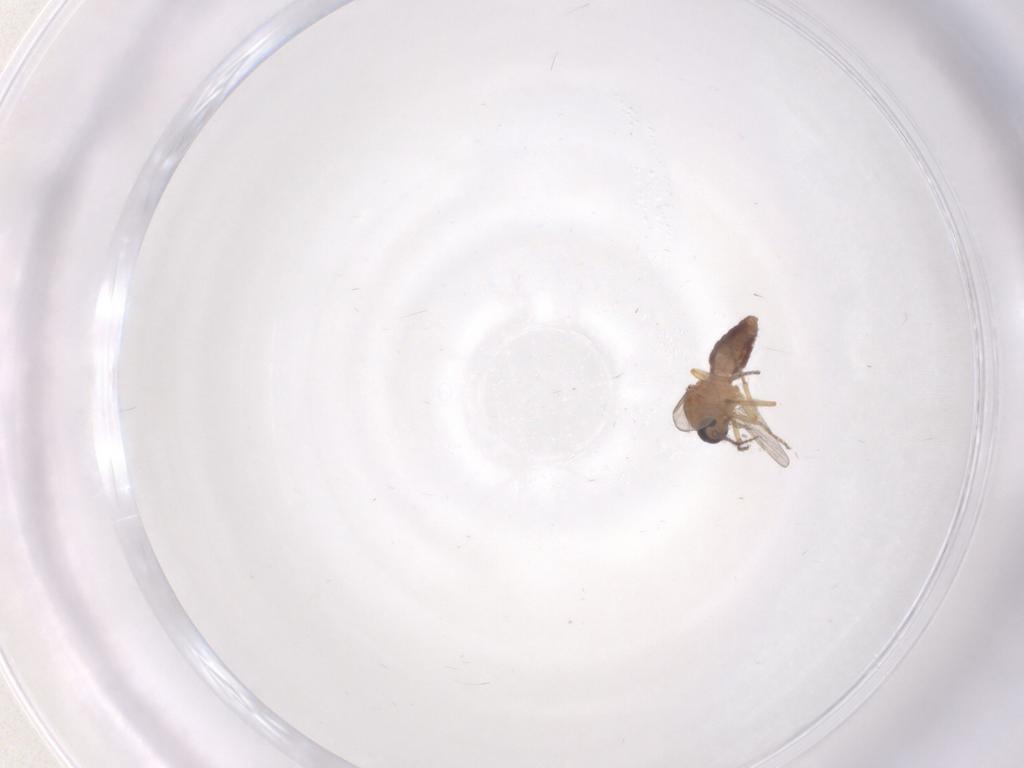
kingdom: Animalia
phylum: Arthropoda
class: Insecta
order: Diptera
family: Ceratopogonidae
